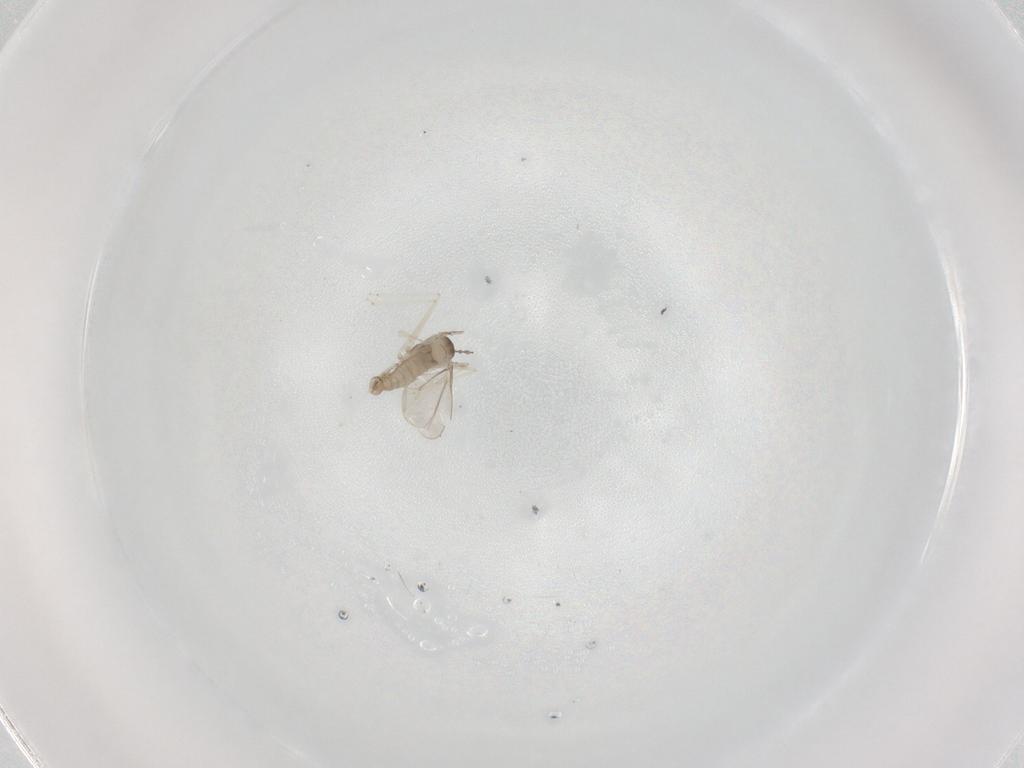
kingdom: Animalia
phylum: Arthropoda
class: Insecta
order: Diptera
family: Cecidomyiidae
